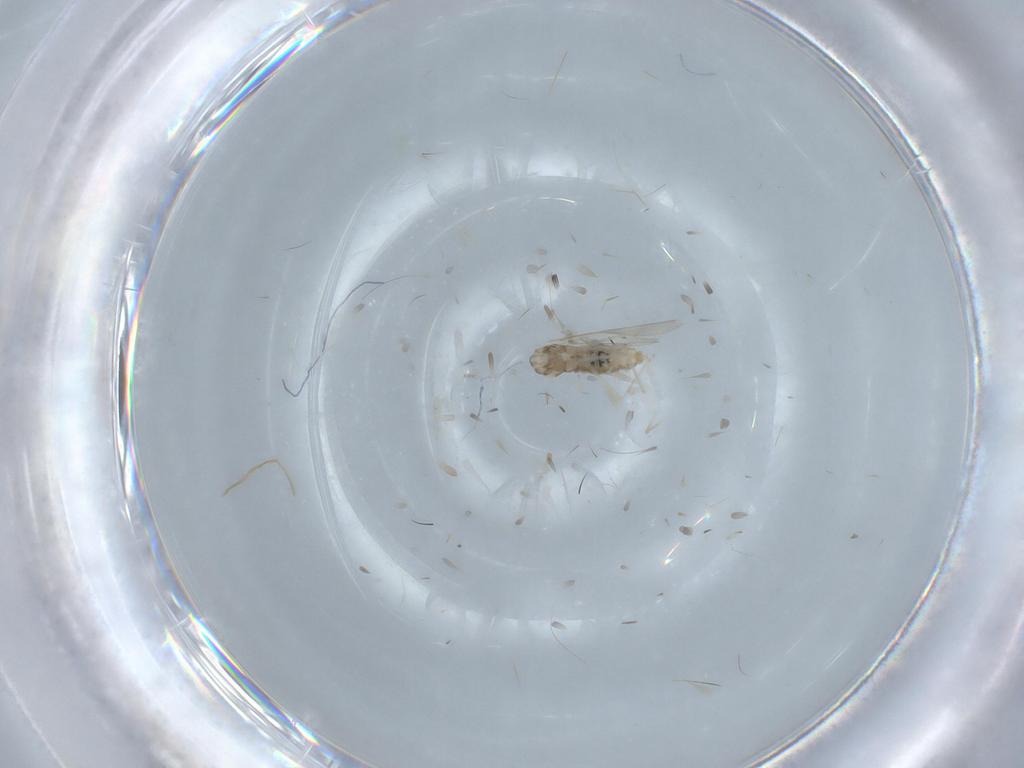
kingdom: Animalia
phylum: Arthropoda
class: Insecta
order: Diptera
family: Cecidomyiidae
